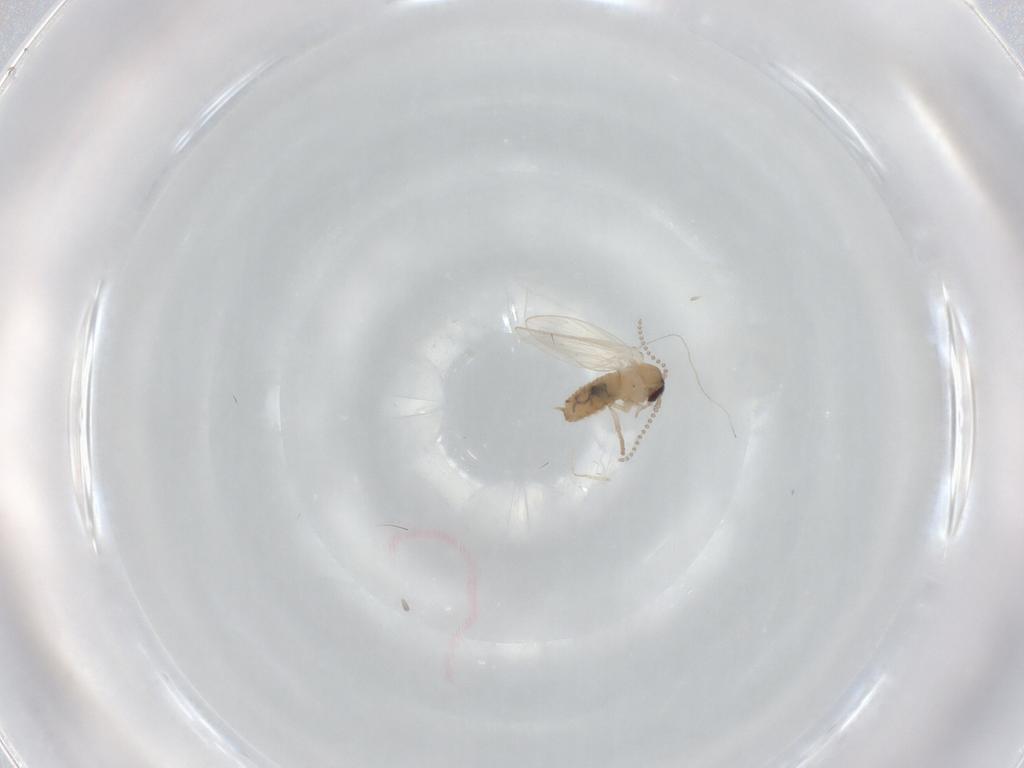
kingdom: Animalia
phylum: Arthropoda
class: Insecta
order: Diptera
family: Psychodidae
